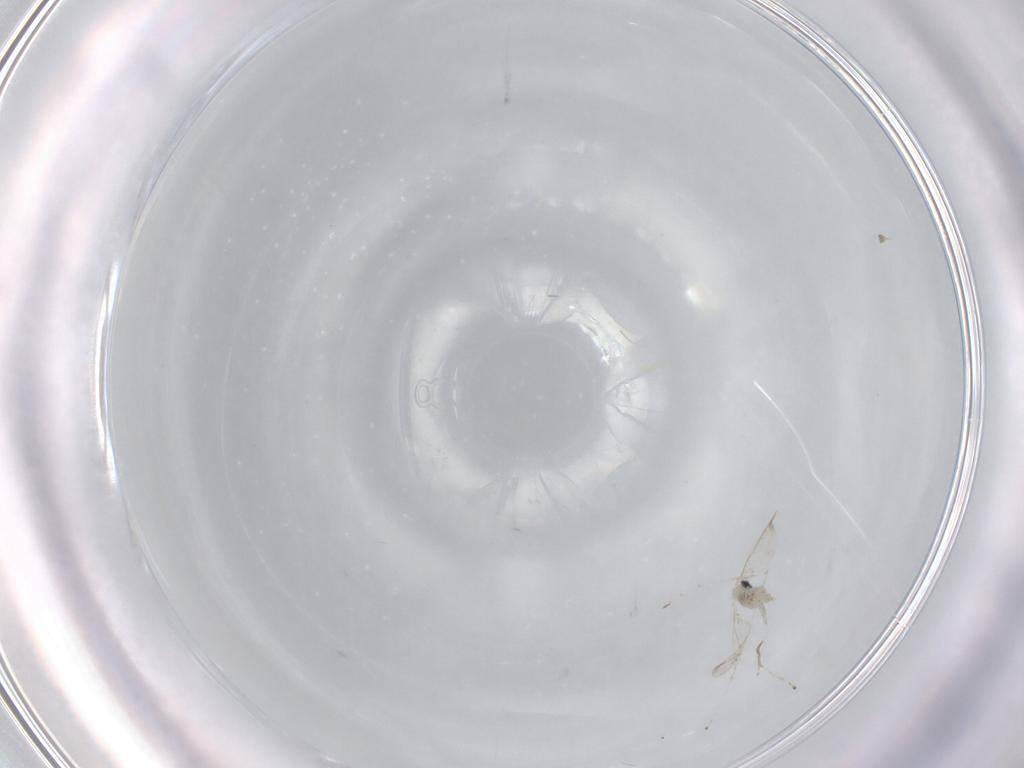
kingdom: Animalia
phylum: Arthropoda
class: Insecta
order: Diptera
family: Cecidomyiidae
